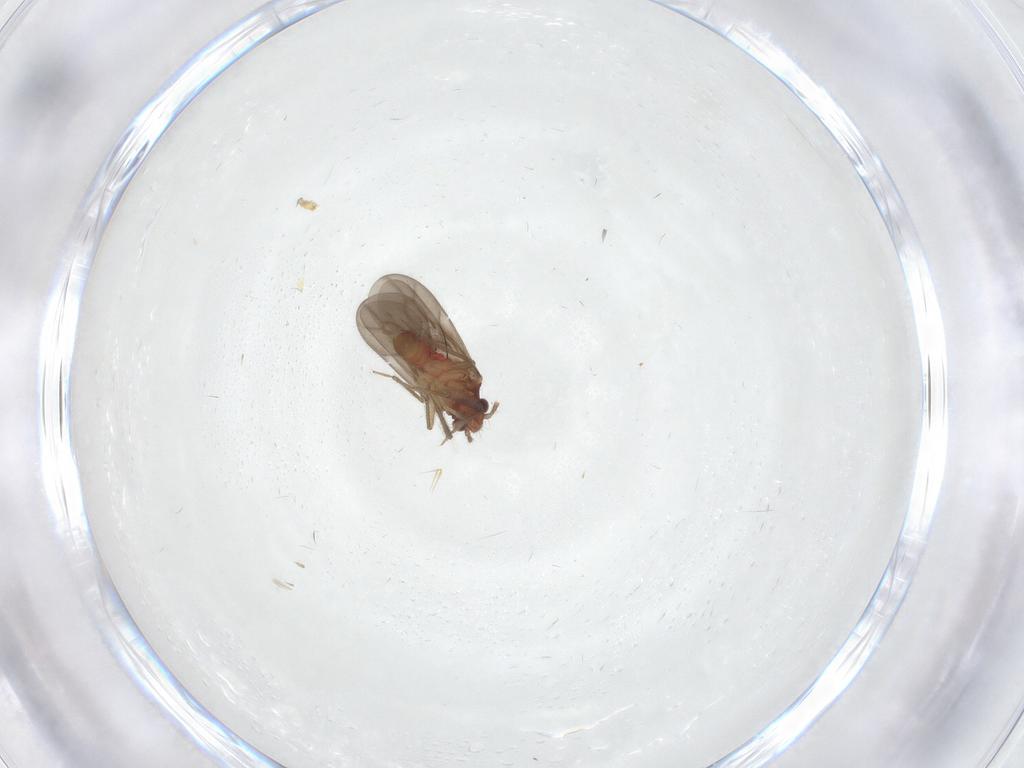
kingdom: Animalia
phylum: Arthropoda
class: Insecta
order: Hemiptera
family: Ceratocombidae
